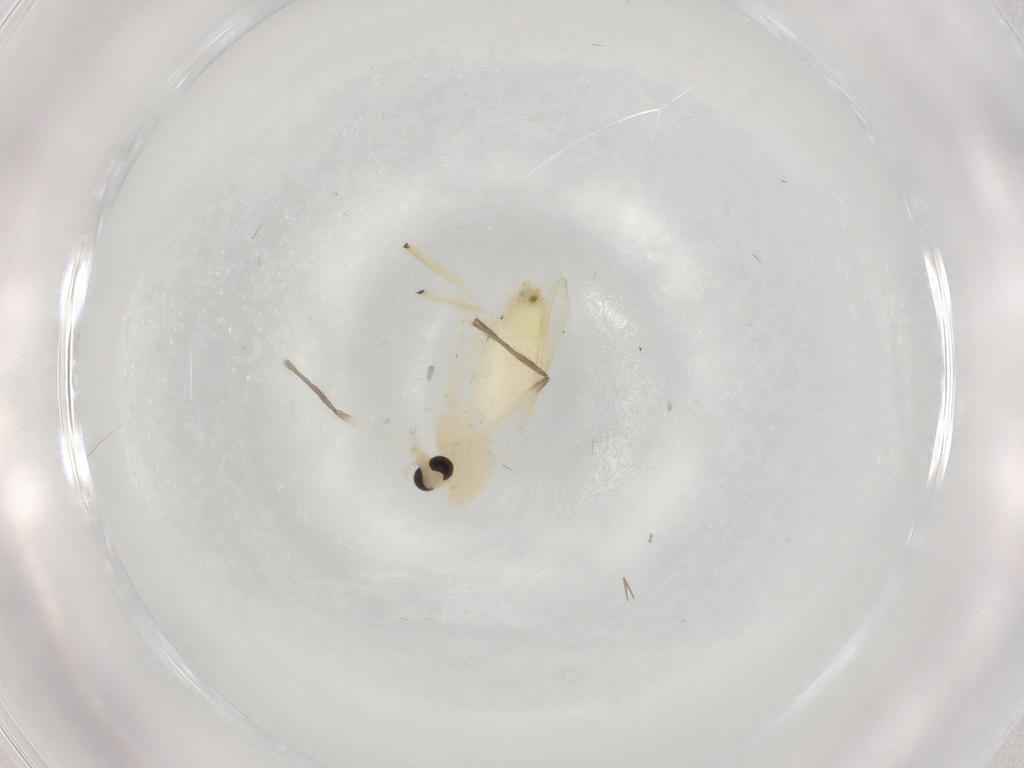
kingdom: Animalia
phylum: Arthropoda
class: Insecta
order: Diptera
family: Chironomidae
